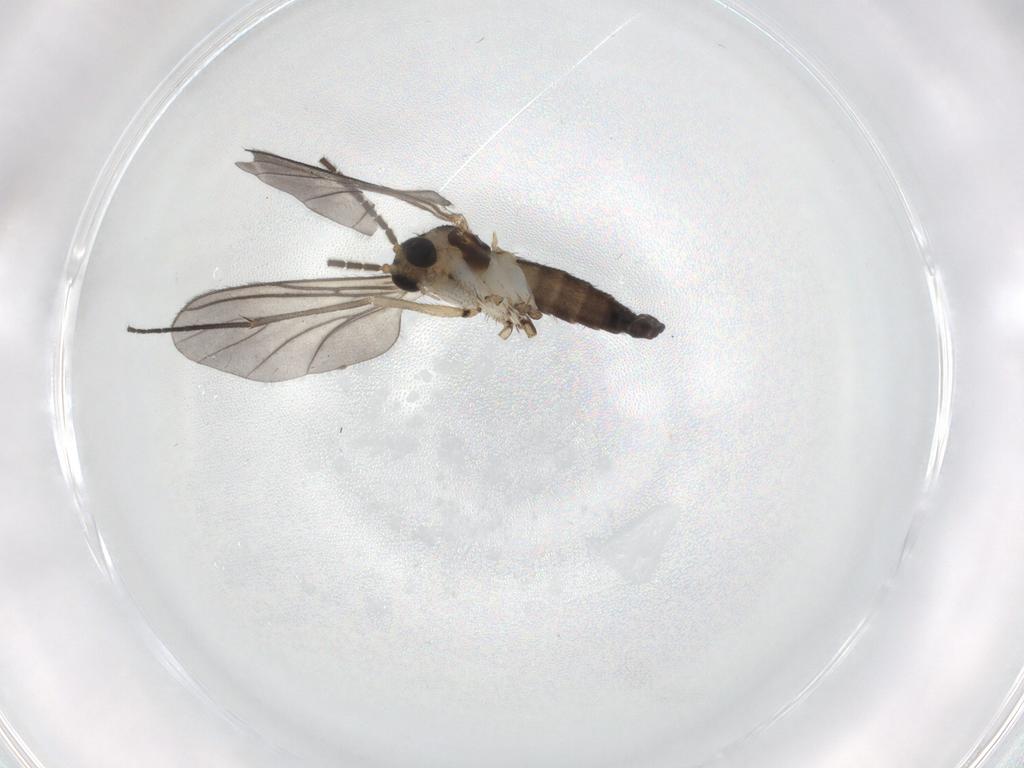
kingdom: Animalia
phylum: Arthropoda
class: Insecta
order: Diptera
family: Sciaridae
